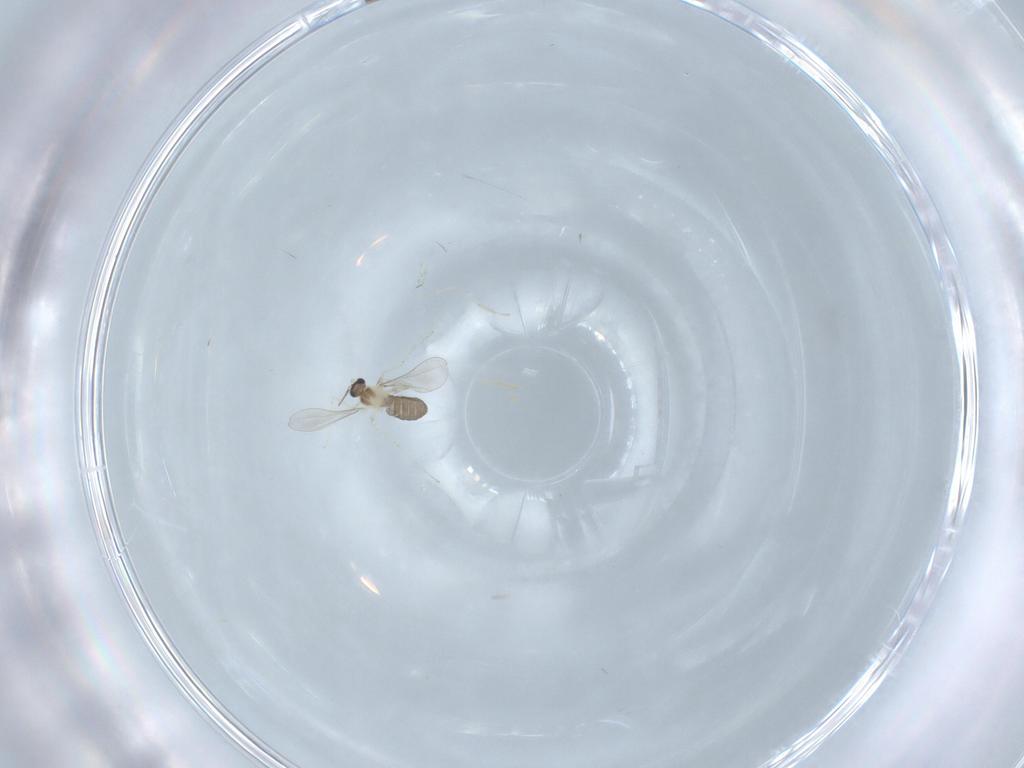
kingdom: Animalia
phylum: Arthropoda
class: Insecta
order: Diptera
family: Cecidomyiidae
